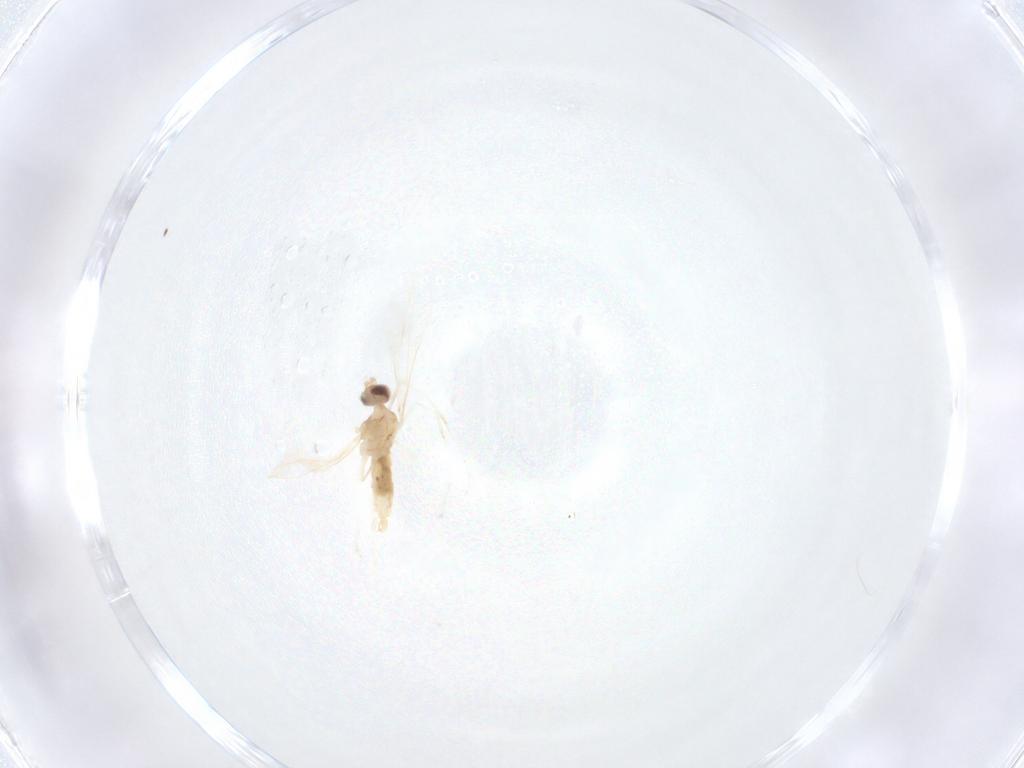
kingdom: Animalia
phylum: Arthropoda
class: Insecta
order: Diptera
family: Cecidomyiidae
